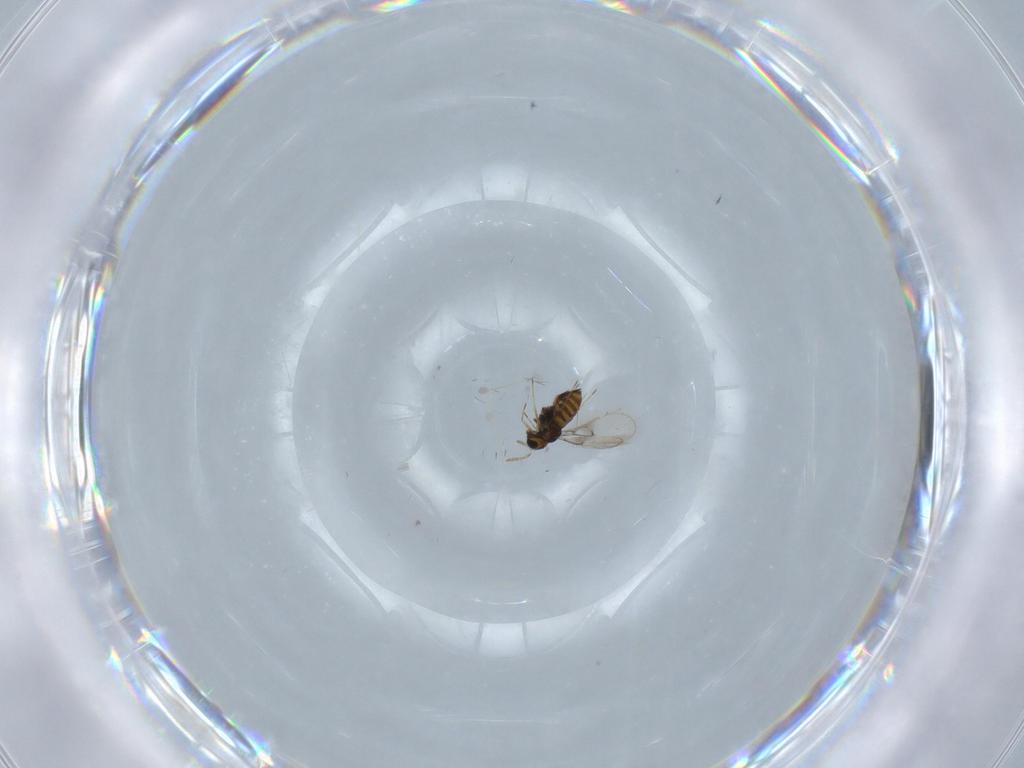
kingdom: Animalia
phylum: Arthropoda
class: Insecta
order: Hymenoptera
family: Trichogrammatidae
